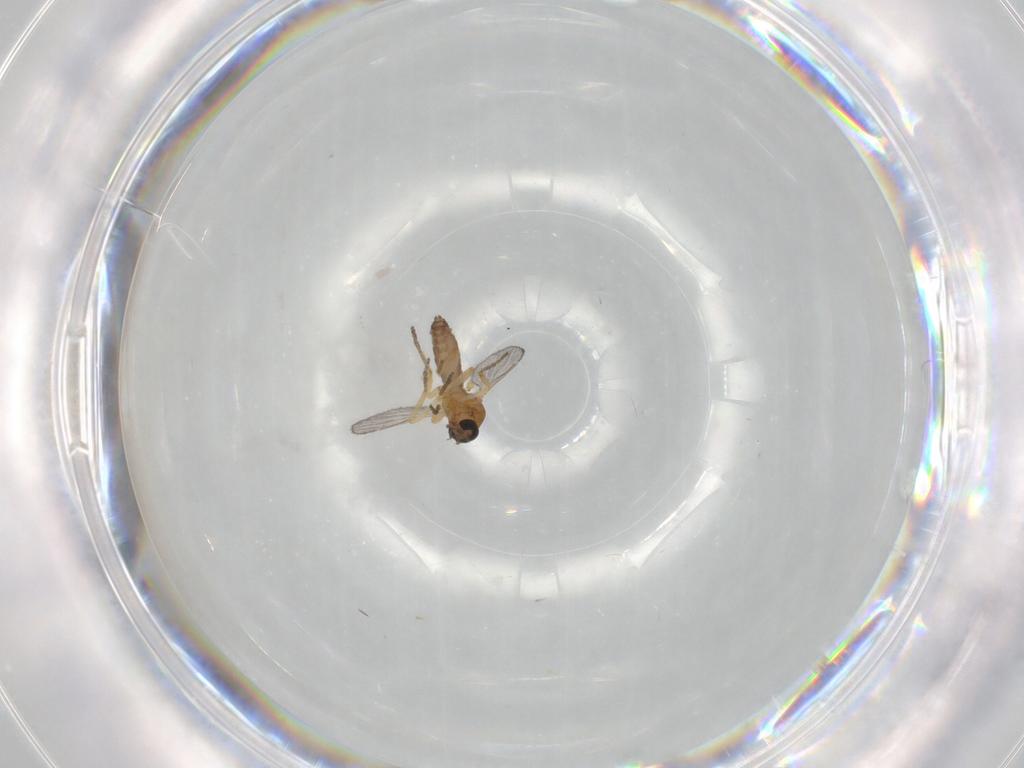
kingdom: Animalia
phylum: Arthropoda
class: Insecta
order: Diptera
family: Ceratopogonidae
